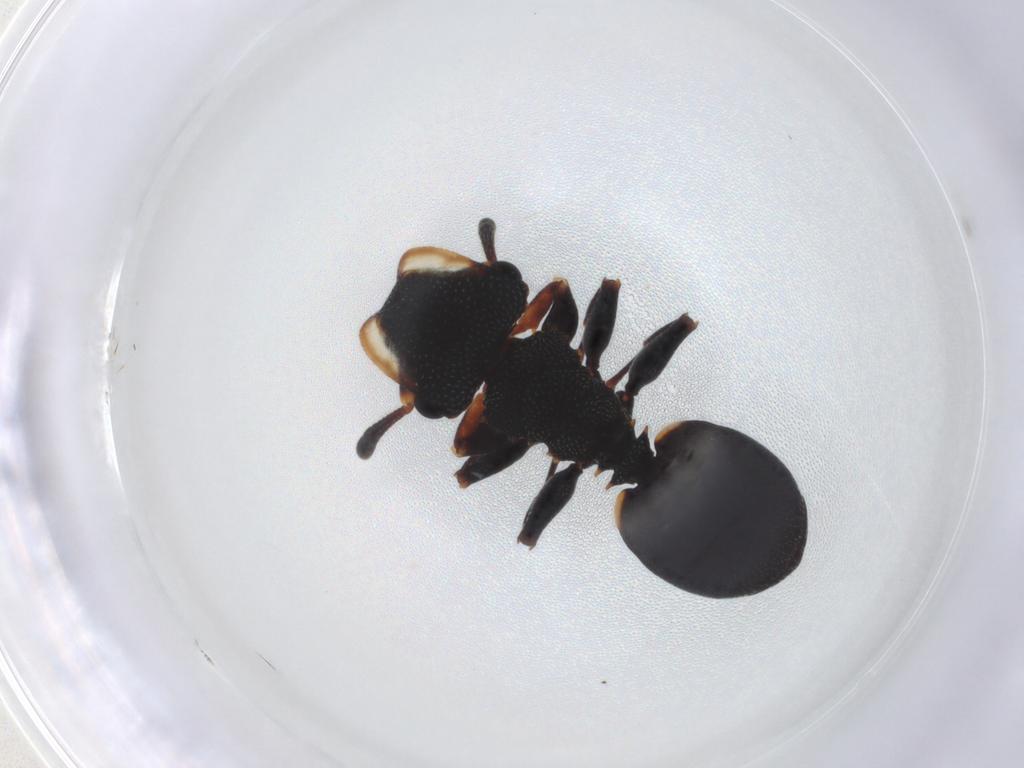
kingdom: Animalia
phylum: Arthropoda
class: Insecta
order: Hymenoptera
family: Formicidae
